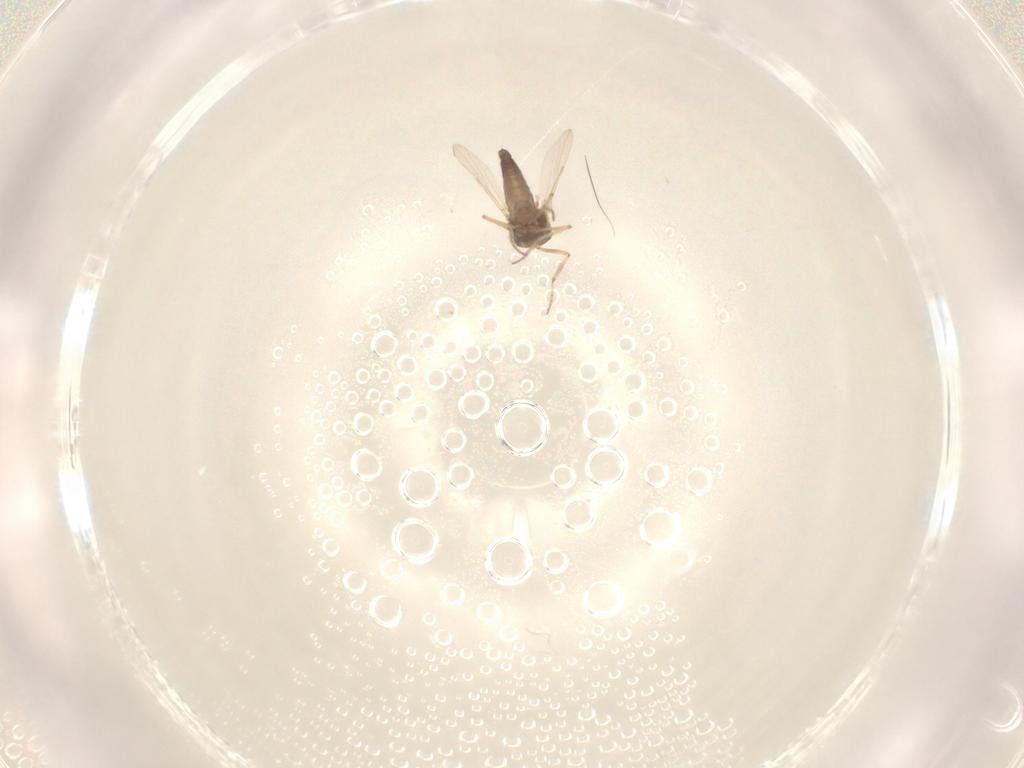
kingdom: Animalia
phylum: Arthropoda
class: Insecta
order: Diptera
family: Ceratopogonidae
